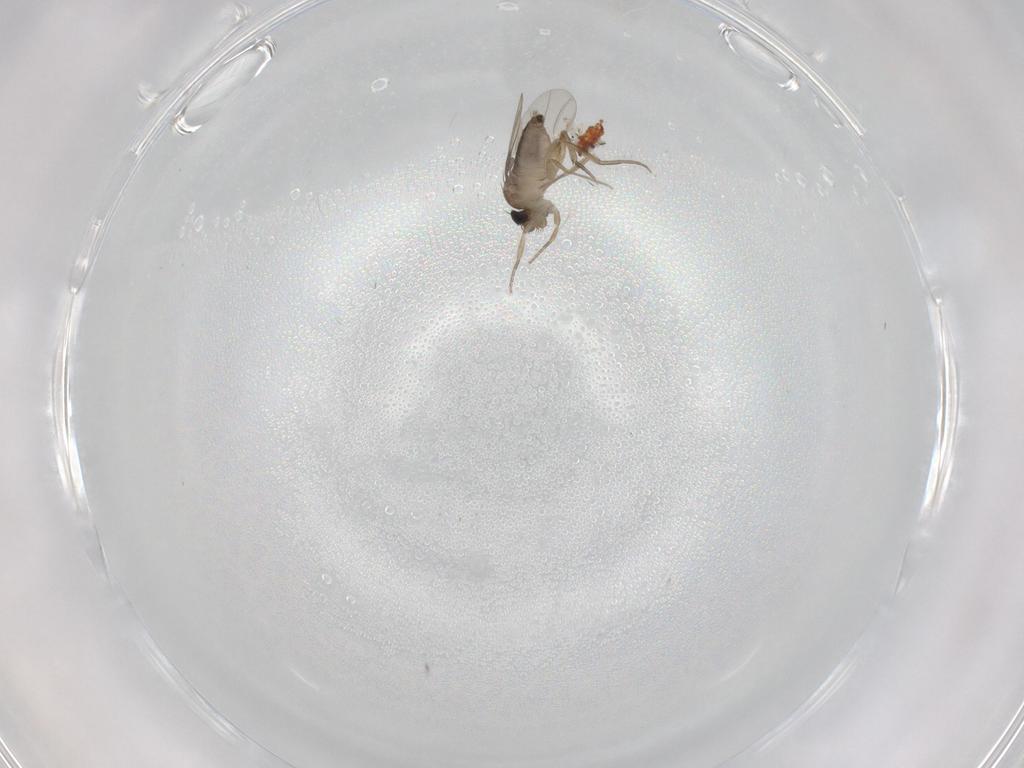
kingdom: Animalia
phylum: Arthropoda
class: Insecta
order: Diptera
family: Phoridae
